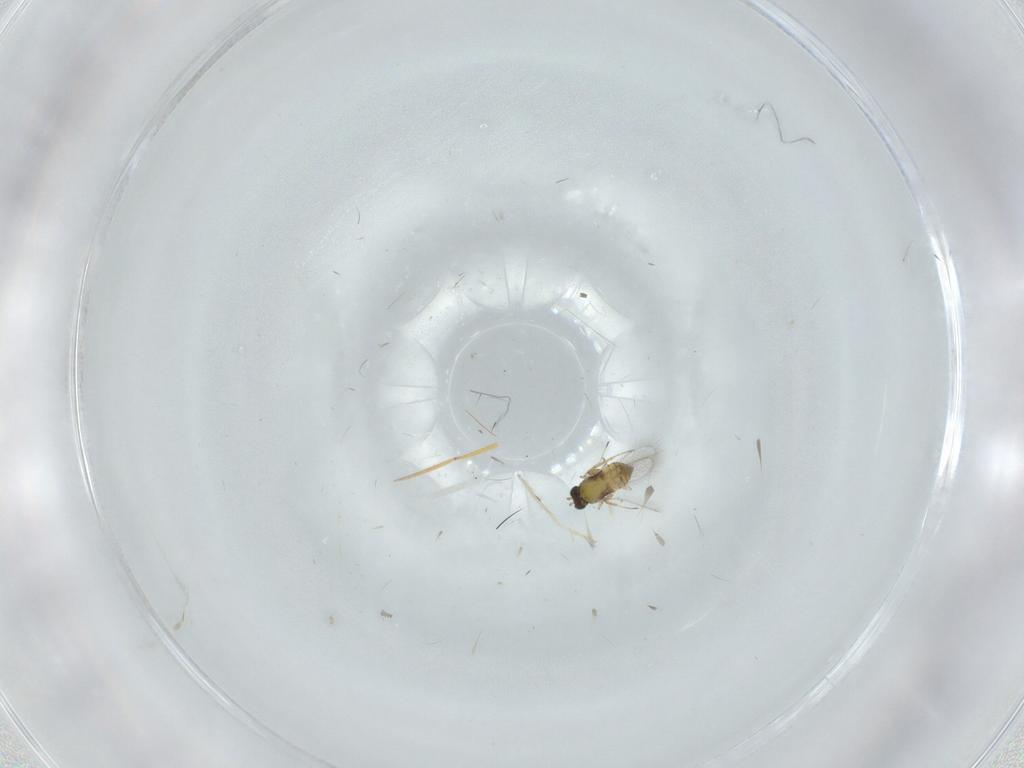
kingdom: Animalia
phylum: Arthropoda
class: Insecta
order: Hymenoptera
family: Trichogrammatidae
